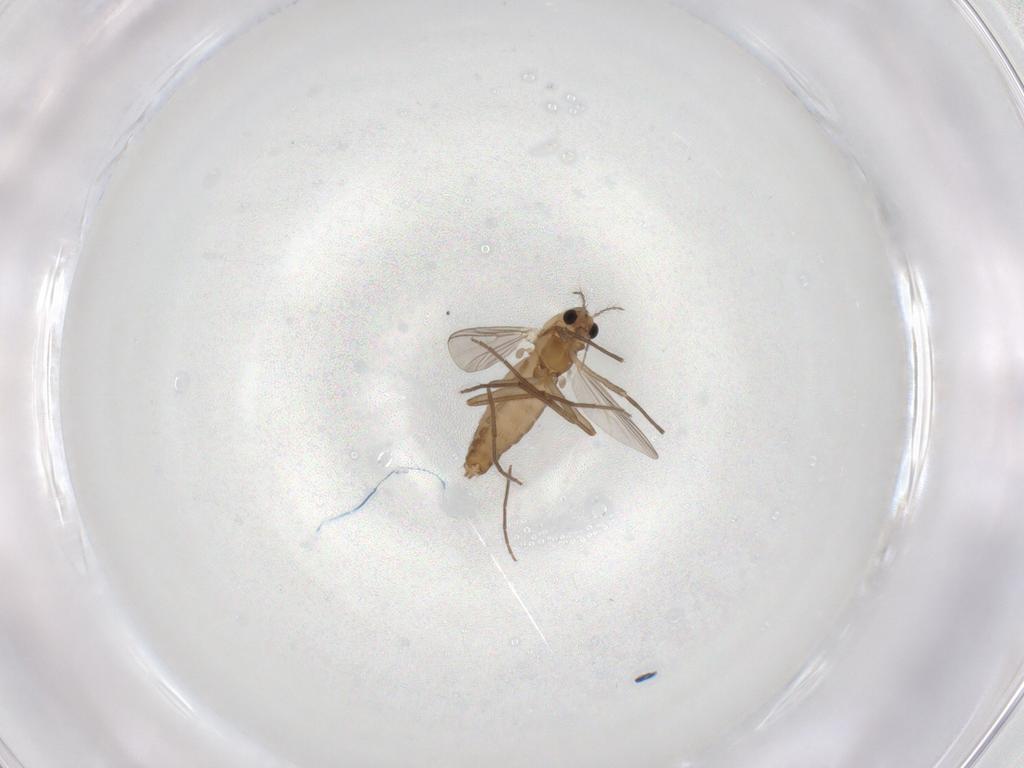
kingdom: Animalia
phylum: Arthropoda
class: Insecta
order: Diptera
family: Chironomidae
